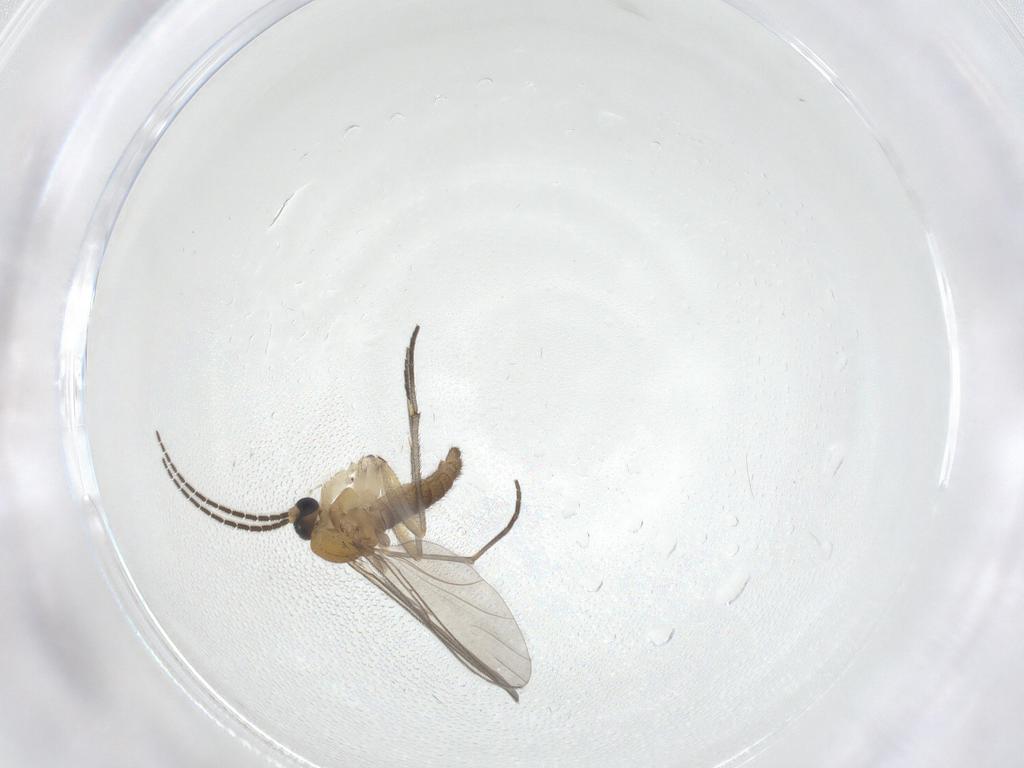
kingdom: Animalia
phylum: Arthropoda
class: Insecta
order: Diptera
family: Sciaridae
